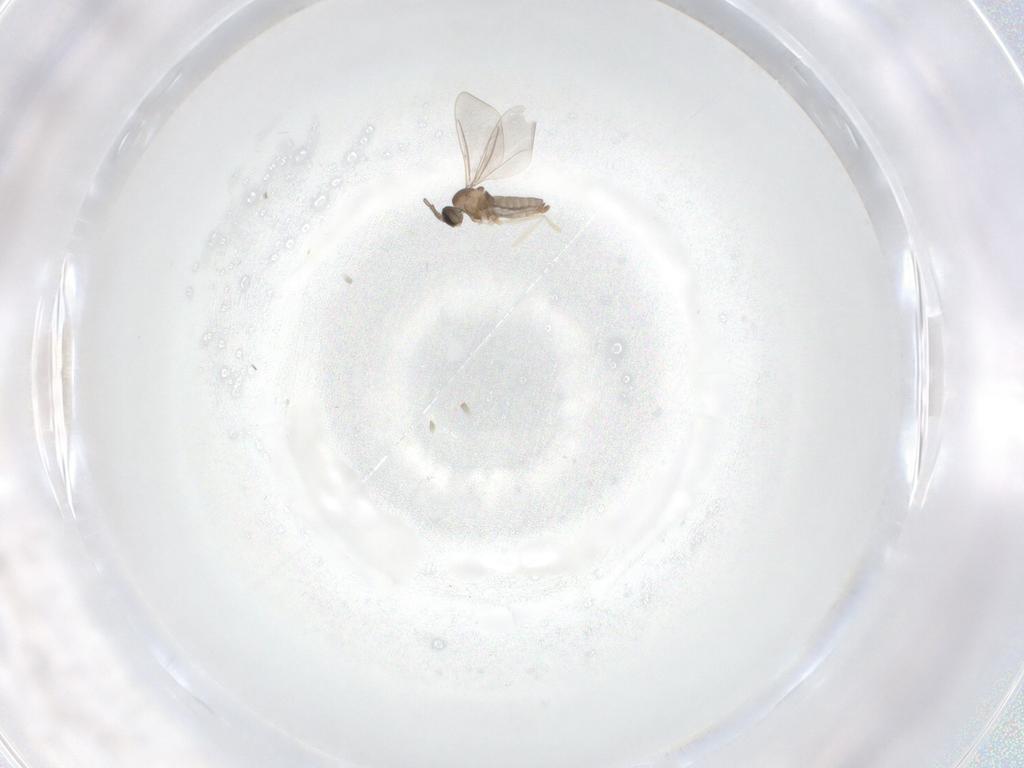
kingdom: Animalia
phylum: Arthropoda
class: Insecta
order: Diptera
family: Cecidomyiidae
